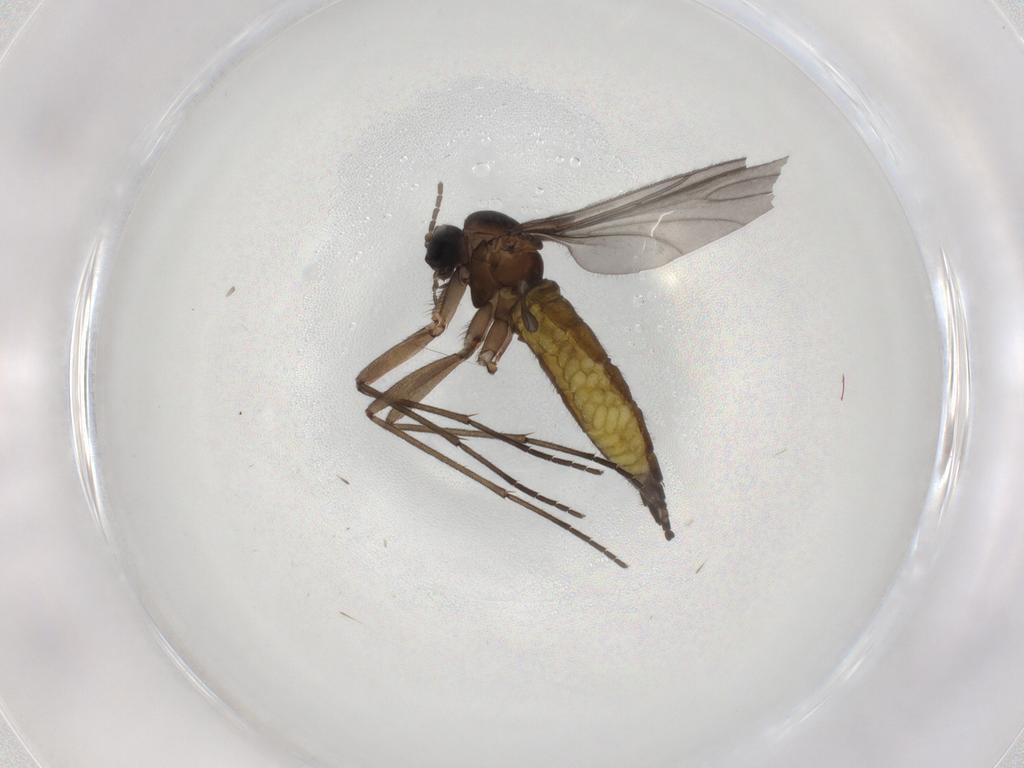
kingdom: Animalia
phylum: Arthropoda
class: Insecta
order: Diptera
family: Sciaridae
